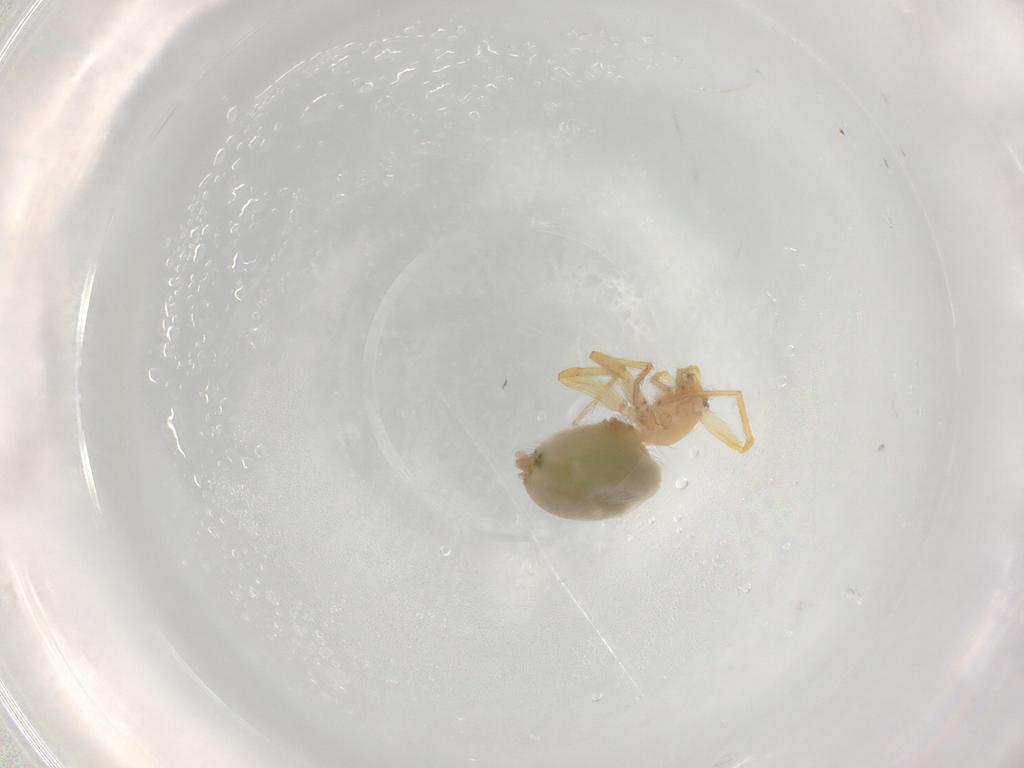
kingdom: Animalia
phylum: Arthropoda
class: Arachnida
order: Araneae
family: Dictynidae
